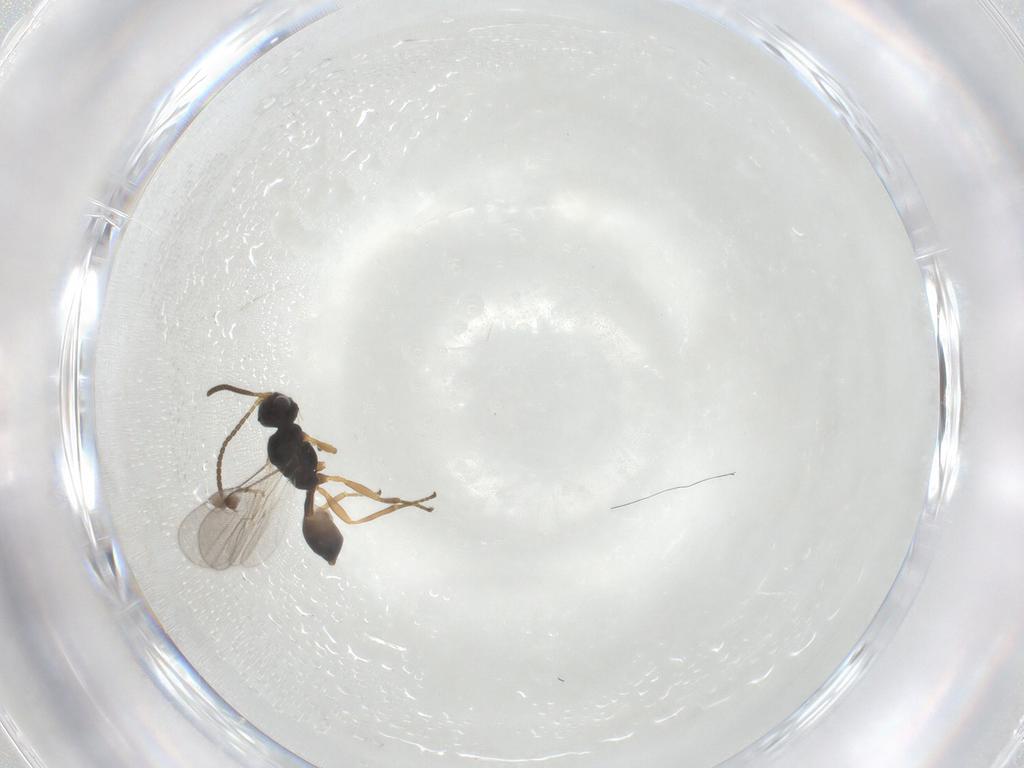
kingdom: Animalia
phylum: Arthropoda
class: Insecta
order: Hymenoptera
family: Braconidae
